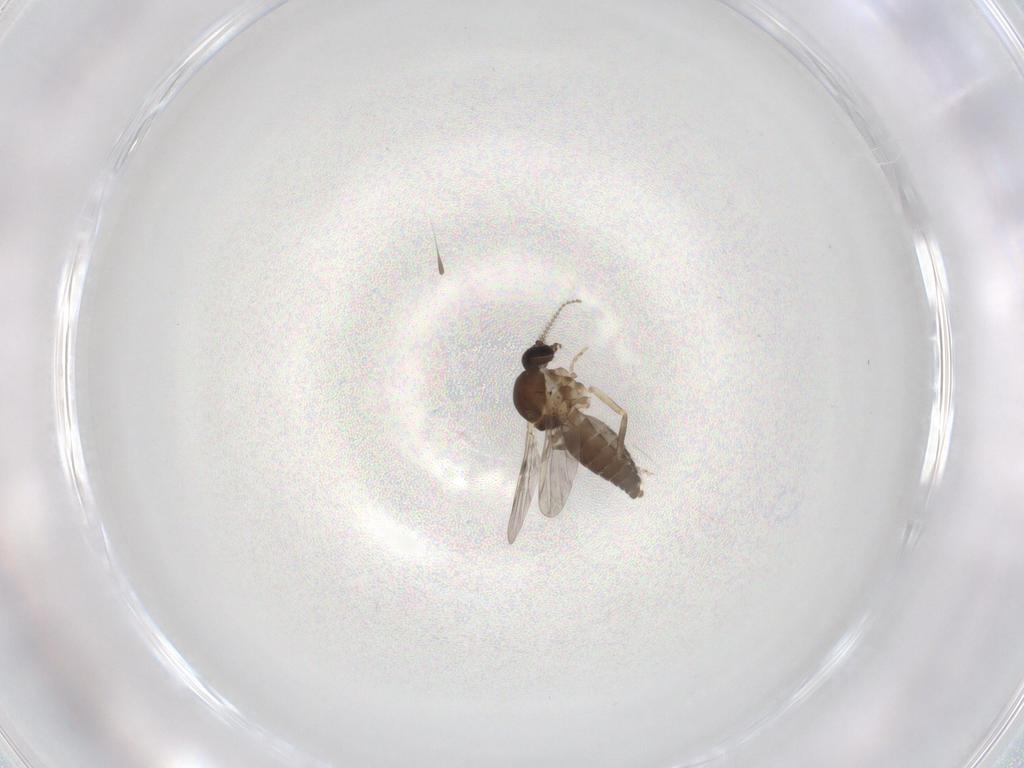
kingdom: Animalia
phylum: Arthropoda
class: Insecta
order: Diptera
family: Ceratopogonidae
